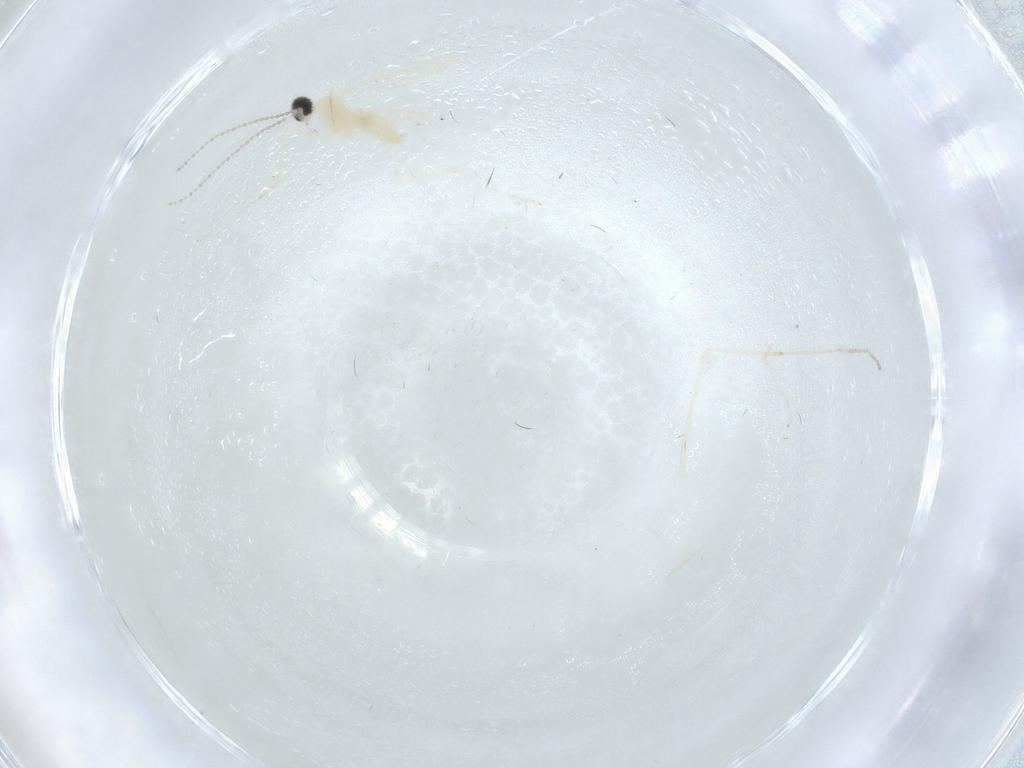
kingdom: Animalia
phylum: Arthropoda
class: Insecta
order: Diptera
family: Cecidomyiidae
